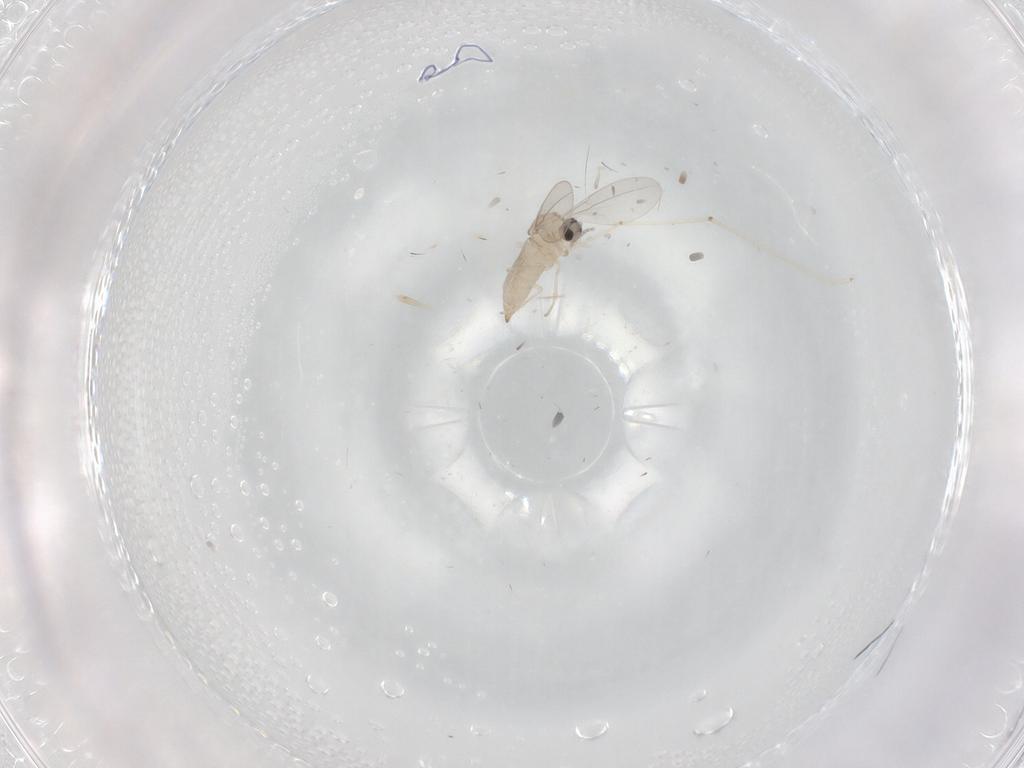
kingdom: Animalia
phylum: Arthropoda
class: Insecta
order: Diptera
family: Cecidomyiidae
